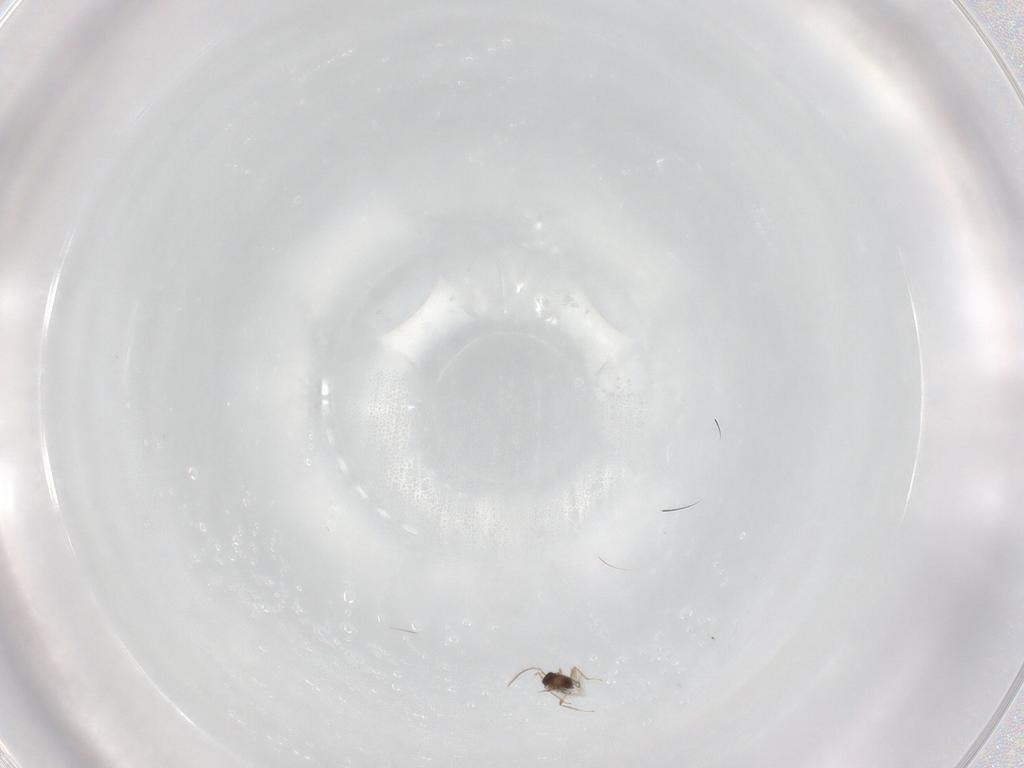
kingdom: Animalia
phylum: Arthropoda
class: Insecta
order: Hymenoptera
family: Mymaridae
